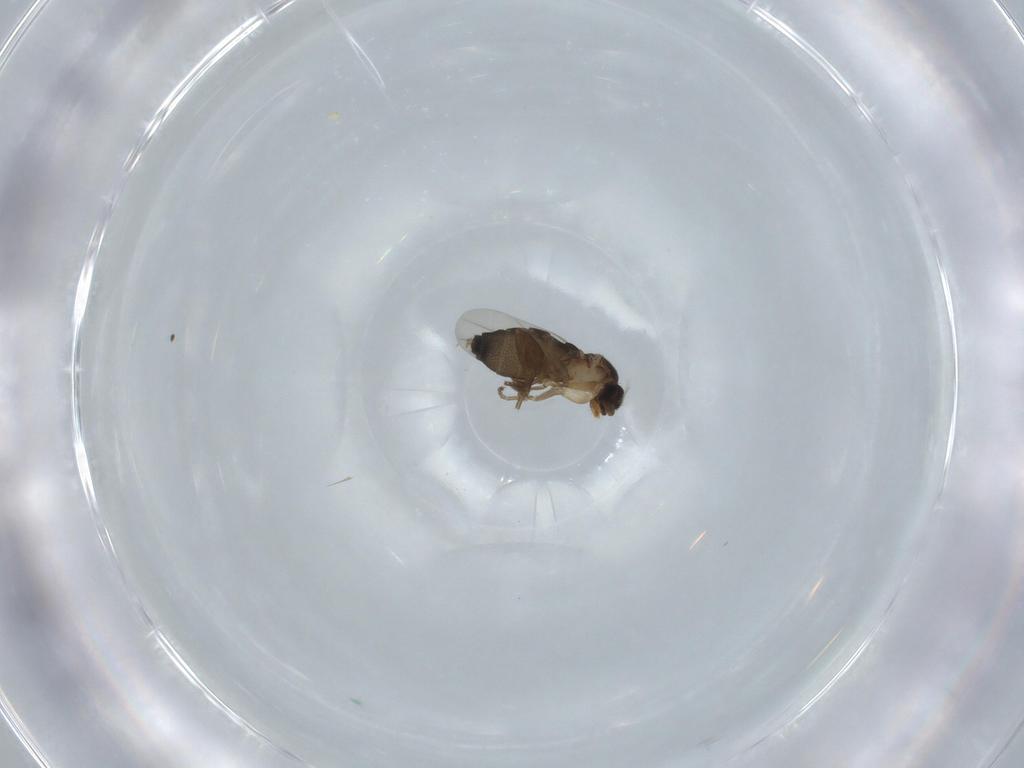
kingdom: Animalia
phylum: Arthropoda
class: Insecta
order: Diptera
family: Phoridae
